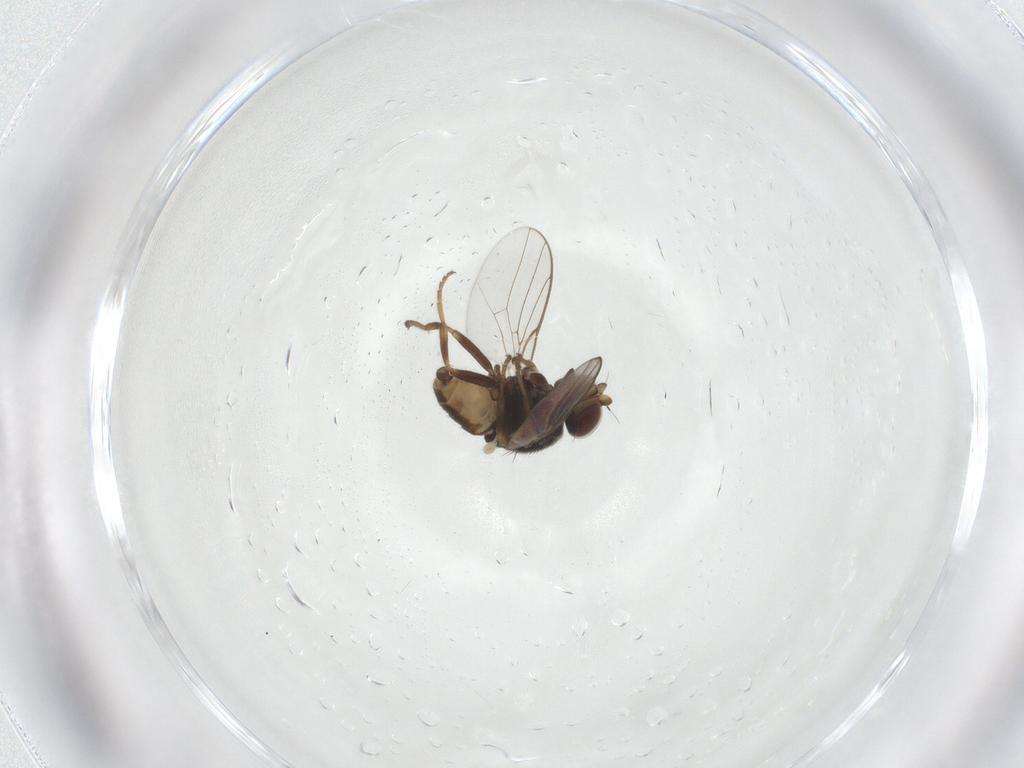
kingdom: Animalia
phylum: Arthropoda
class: Insecta
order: Diptera
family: Chloropidae
